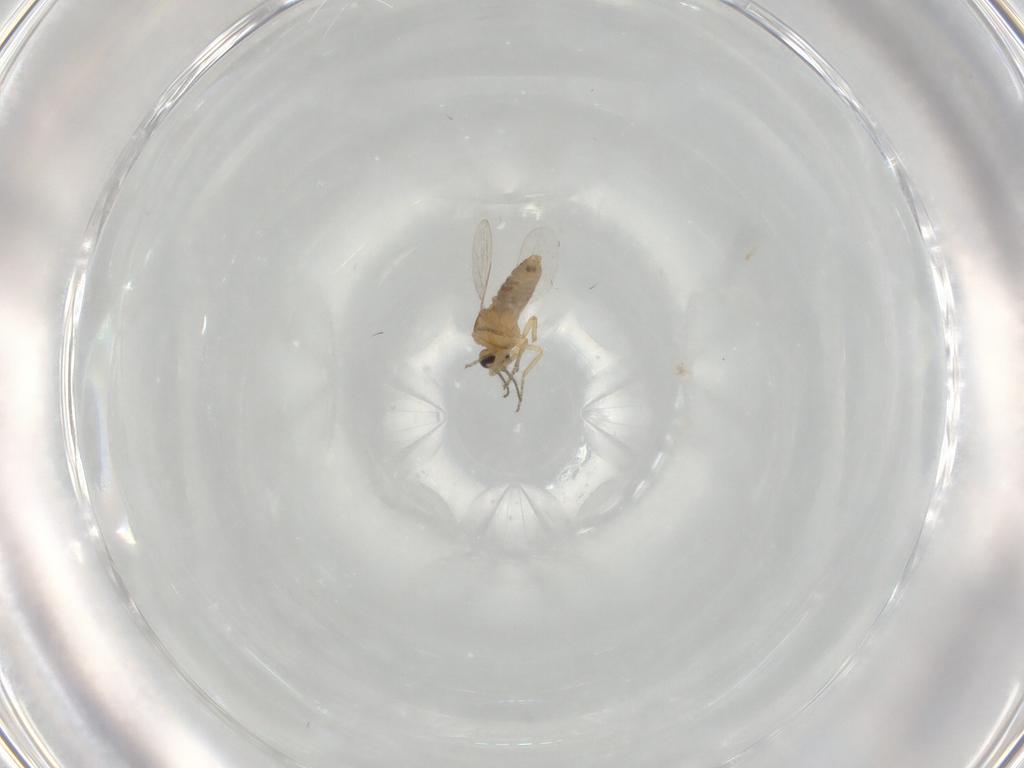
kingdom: Animalia
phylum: Arthropoda
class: Insecta
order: Diptera
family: Ceratopogonidae
